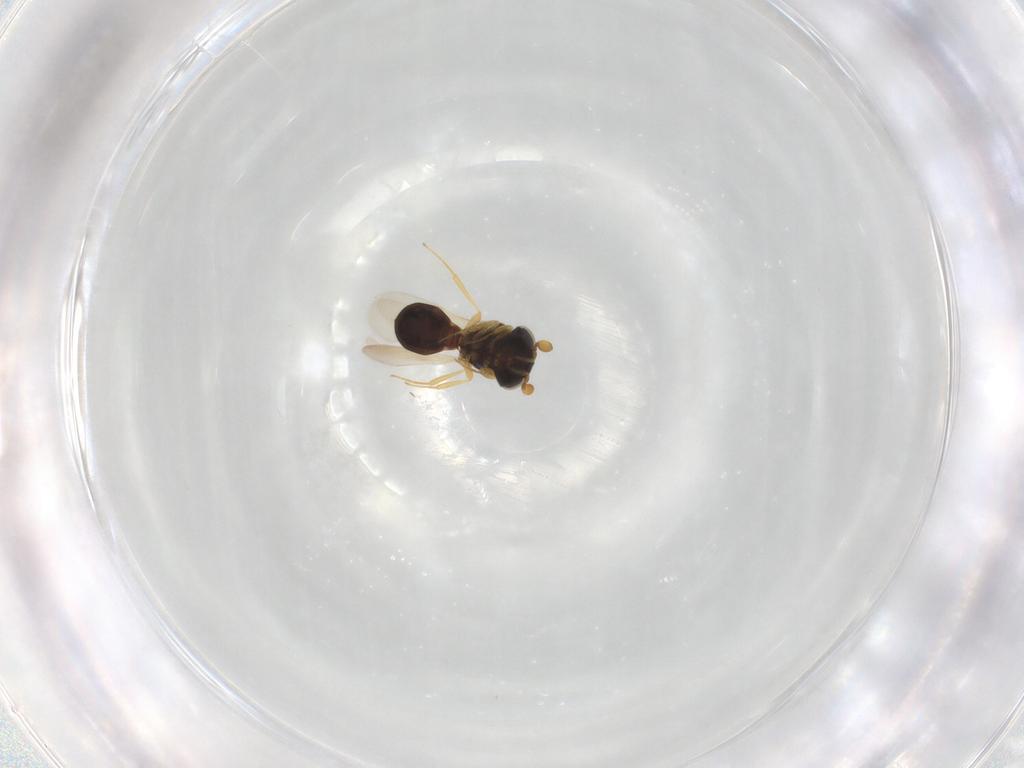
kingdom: Animalia
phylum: Arthropoda
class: Insecta
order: Hymenoptera
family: Scelionidae
